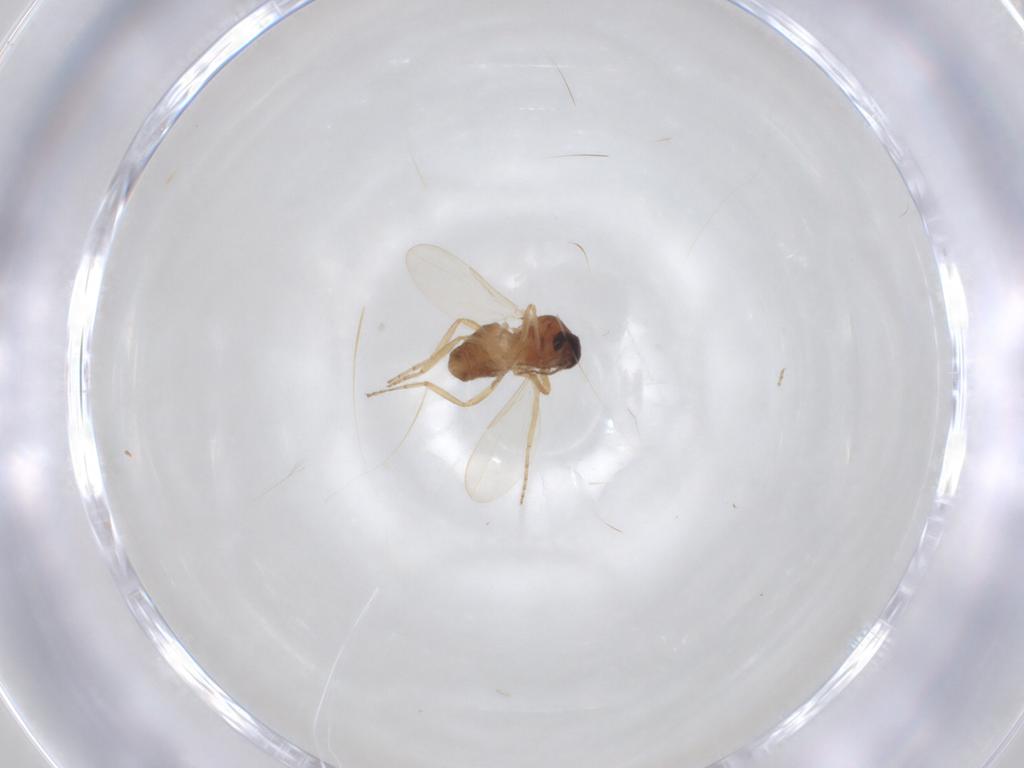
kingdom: Animalia
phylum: Arthropoda
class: Insecta
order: Diptera
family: Ceratopogonidae
